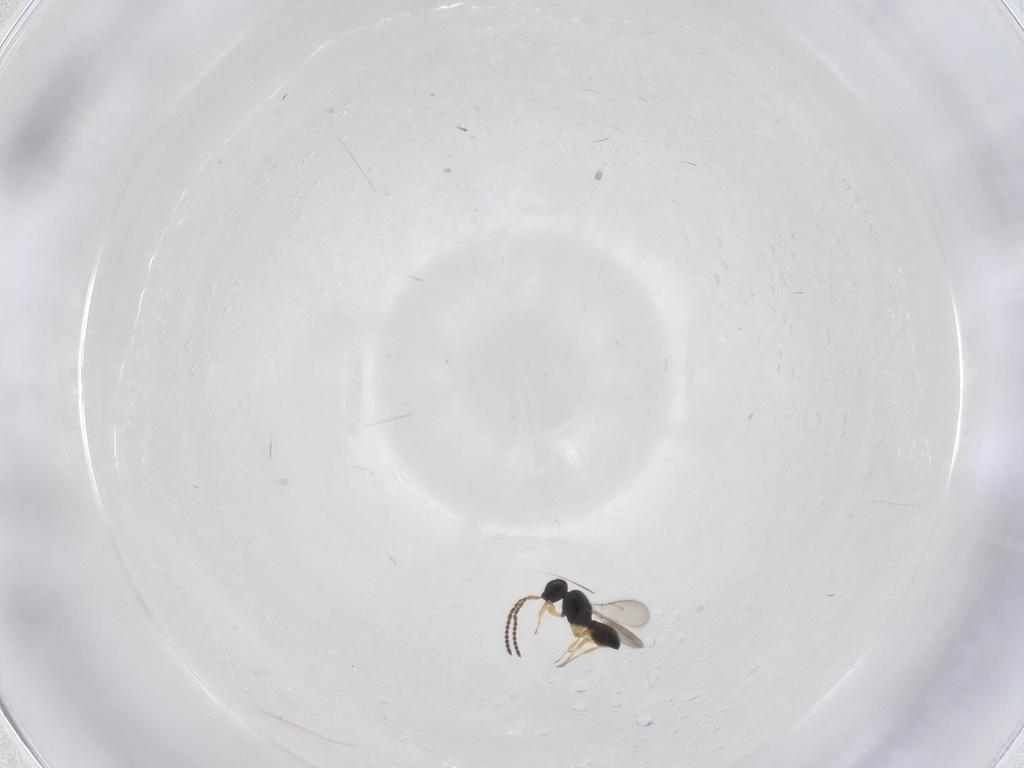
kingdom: Animalia
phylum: Arthropoda
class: Insecta
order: Hymenoptera
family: Scelionidae
